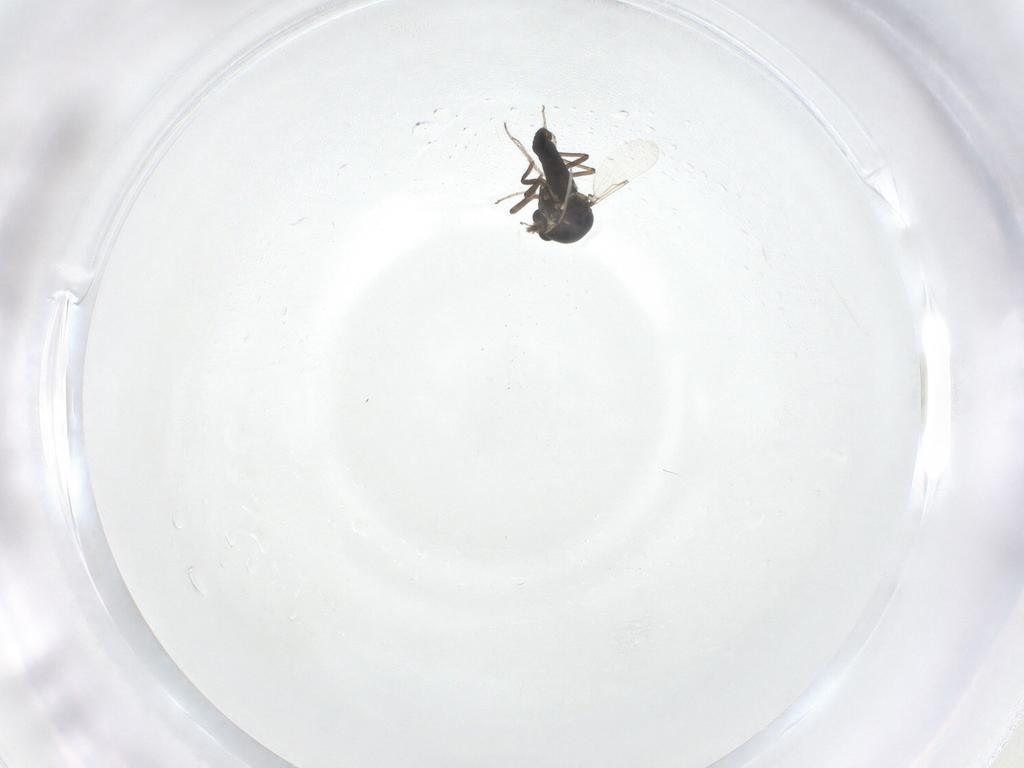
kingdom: Animalia
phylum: Arthropoda
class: Insecta
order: Diptera
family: Ceratopogonidae
